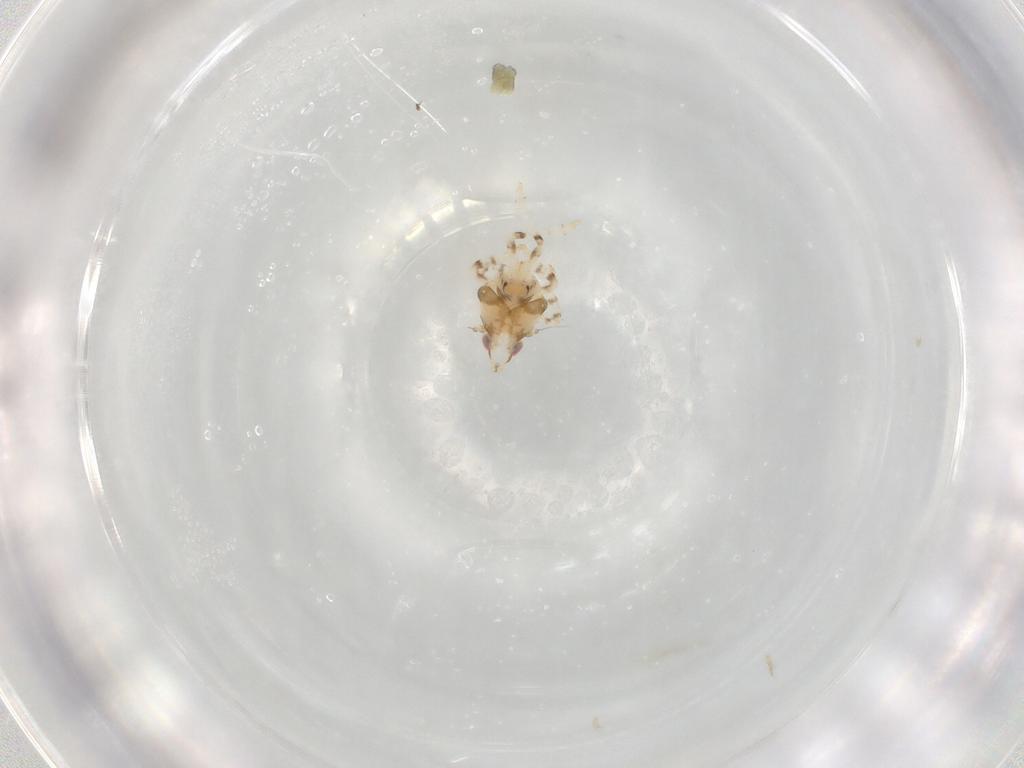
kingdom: Animalia
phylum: Arthropoda
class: Insecta
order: Hemiptera
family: Lophopidae
